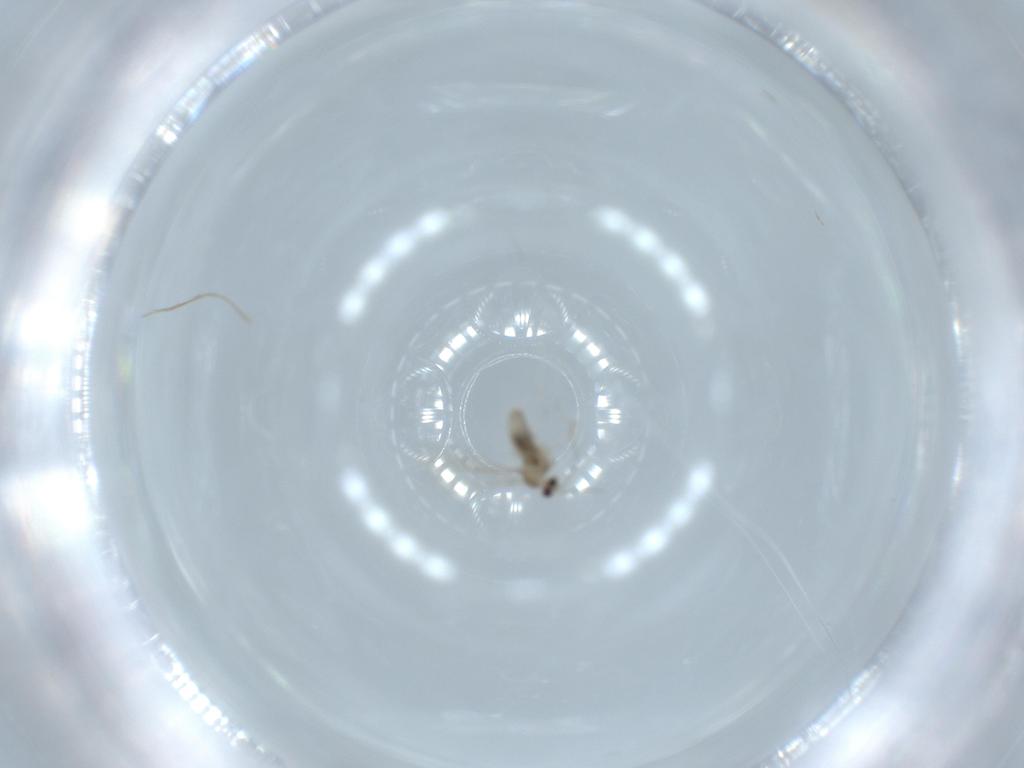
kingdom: Animalia
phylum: Arthropoda
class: Insecta
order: Diptera
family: Cecidomyiidae
